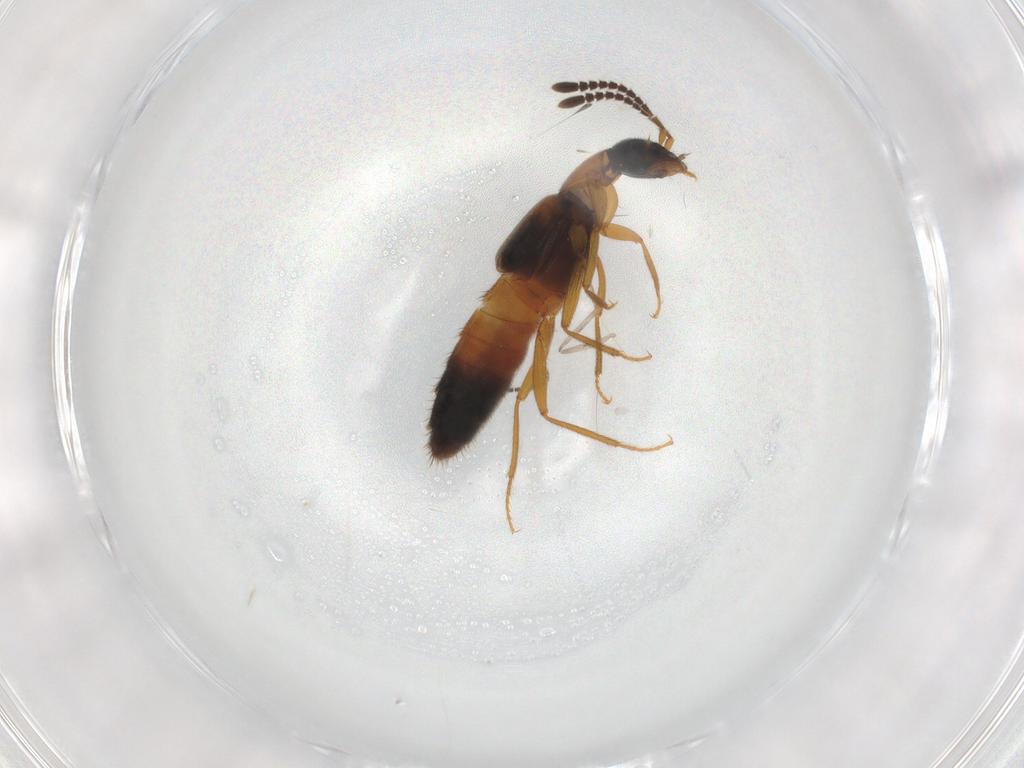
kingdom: Animalia
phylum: Arthropoda
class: Insecta
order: Coleoptera
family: Staphylinidae
